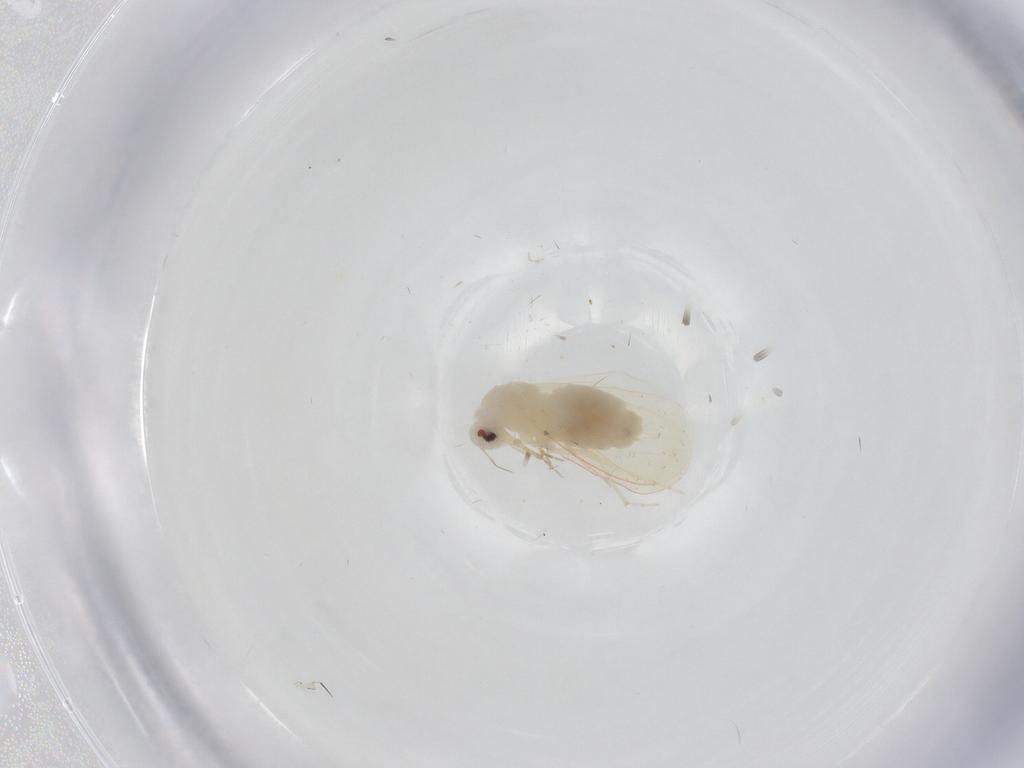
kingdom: Animalia
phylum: Arthropoda
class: Insecta
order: Hemiptera
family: Aleyrodidae
